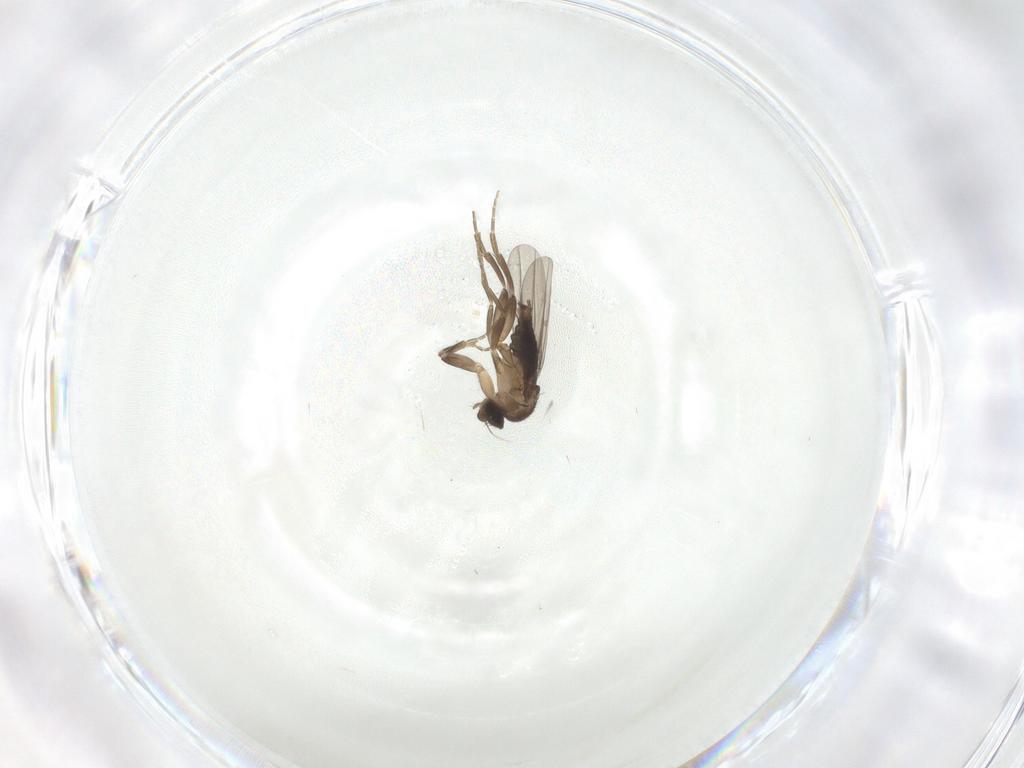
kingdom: Animalia
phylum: Arthropoda
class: Insecta
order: Diptera
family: Phoridae
